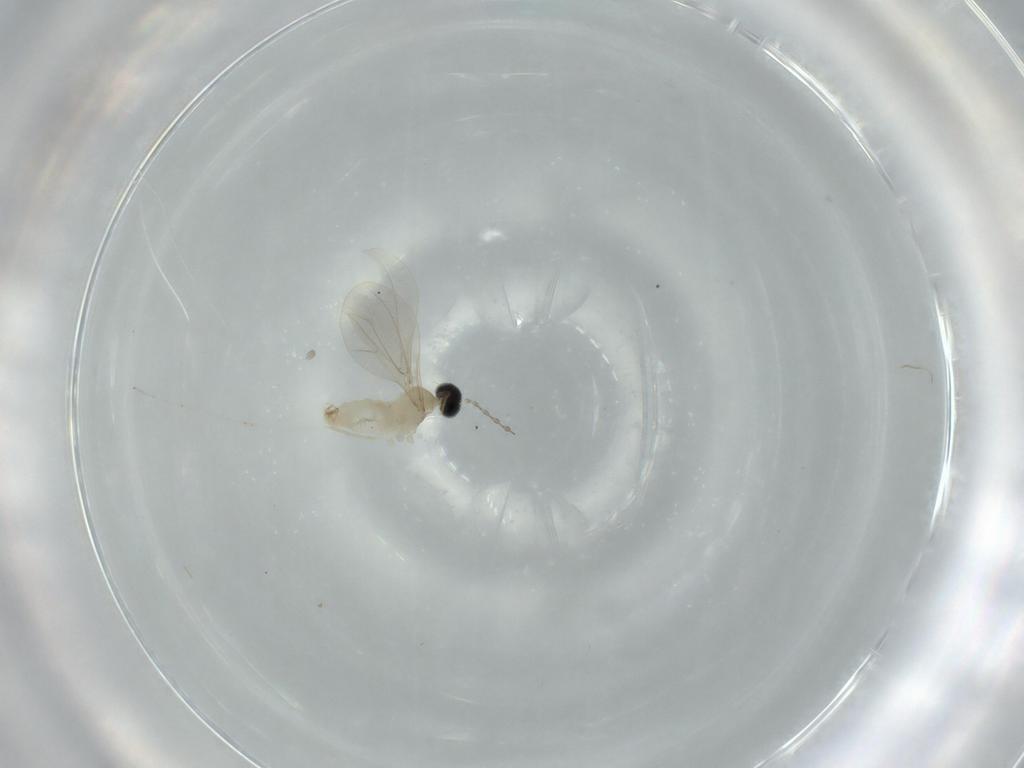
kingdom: Animalia
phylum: Arthropoda
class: Insecta
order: Diptera
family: Cecidomyiidae
